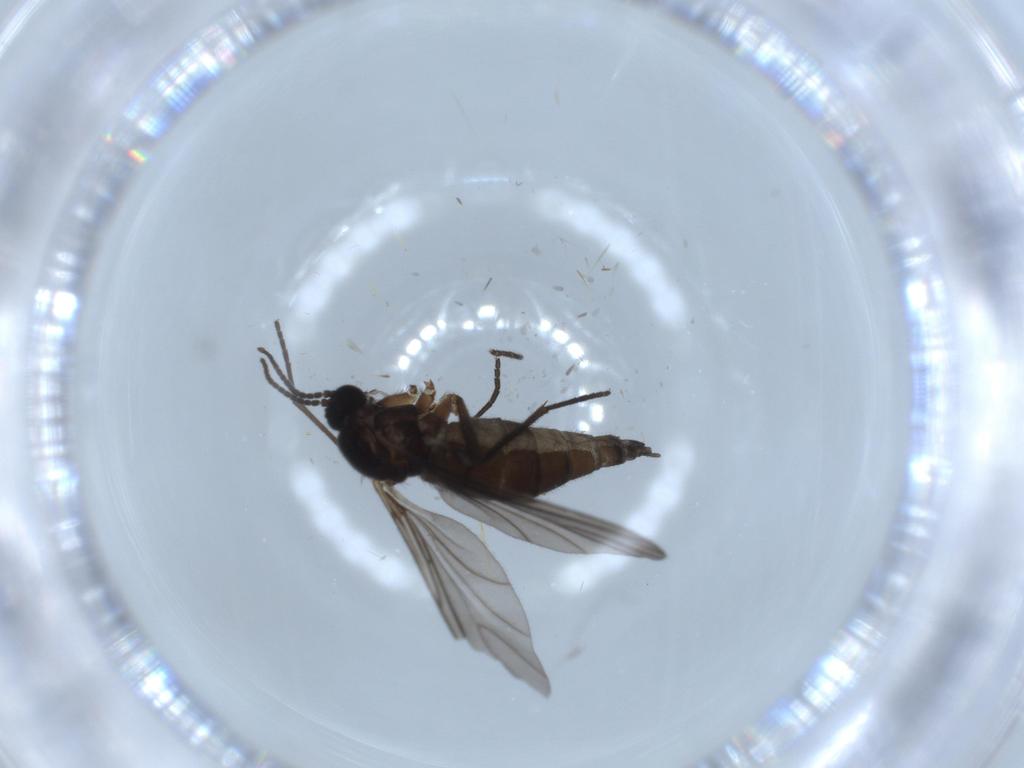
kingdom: Animalia
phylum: Arthropoda
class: Insecta
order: Diptera
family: Sciaridae
